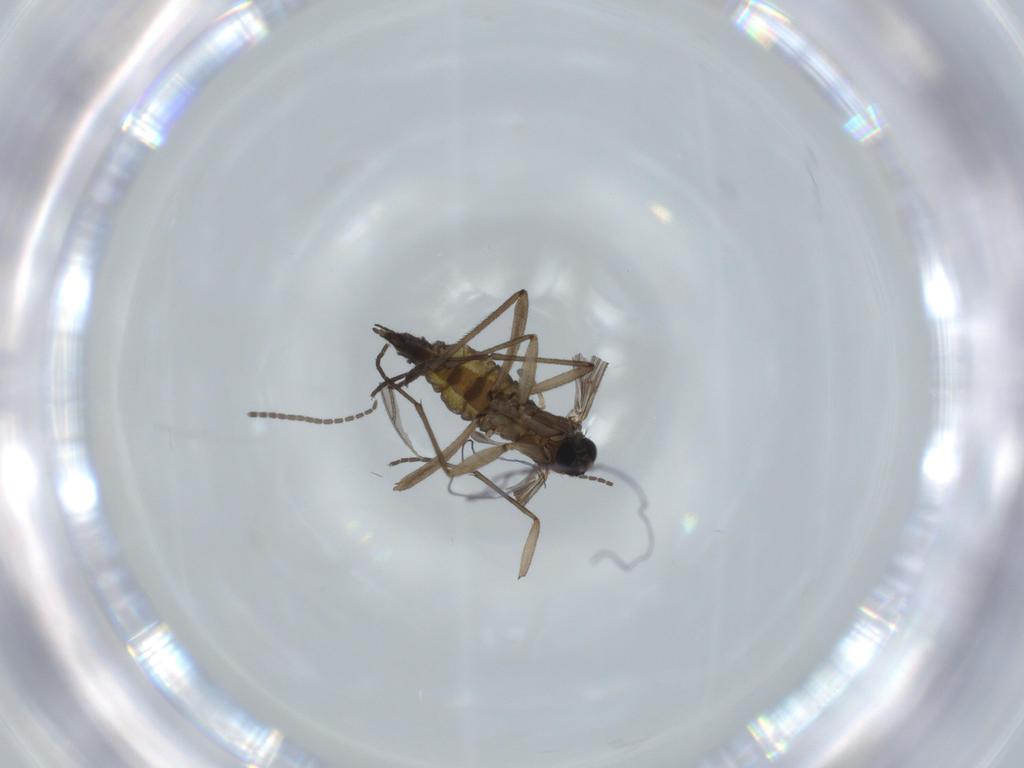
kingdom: Animalia
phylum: Arthropoda
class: Insecta
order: Diptera
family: Sciaridae
